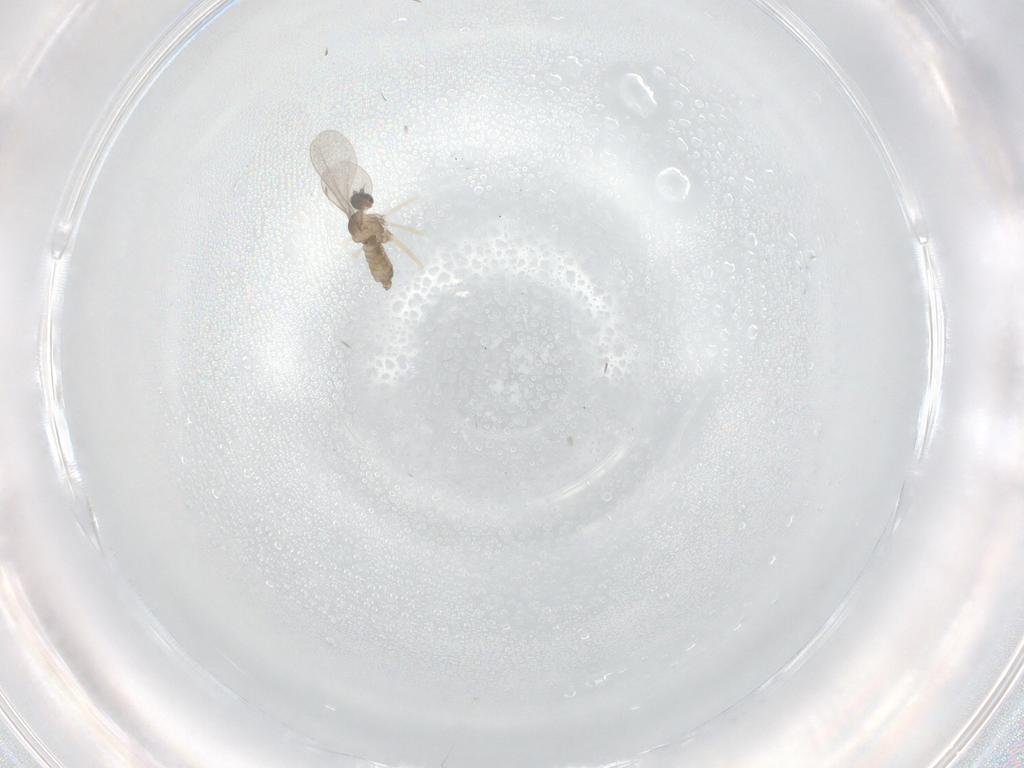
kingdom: Animalia
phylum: Arthropoda
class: Insecta
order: Diptera
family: Bibionidae
